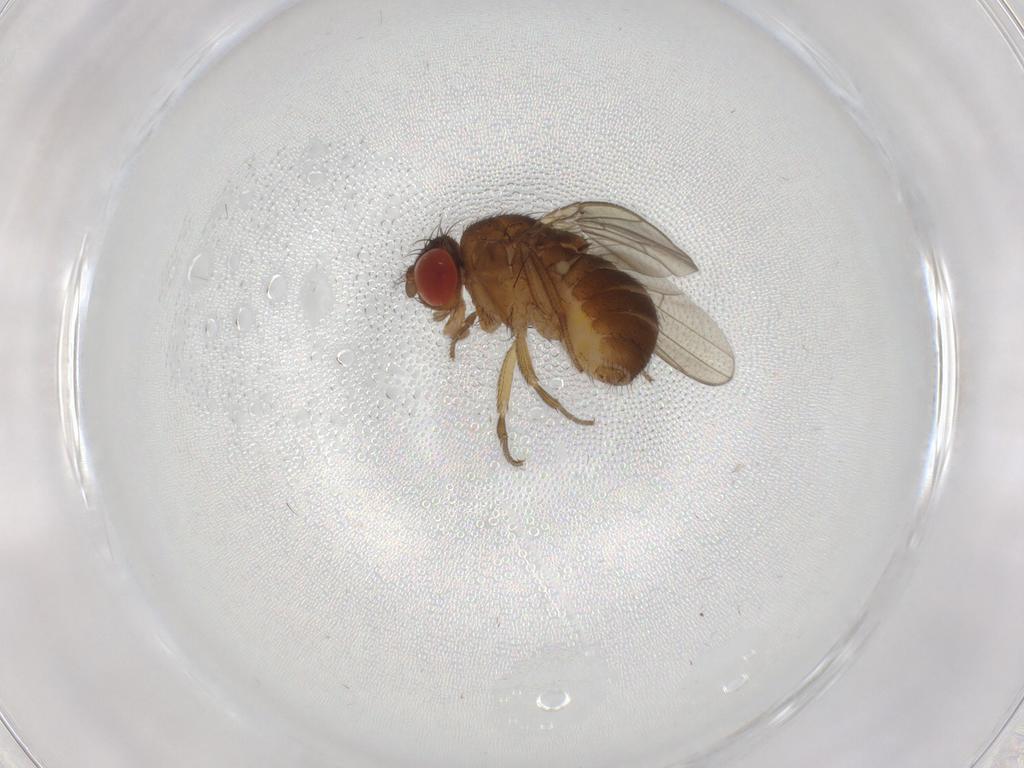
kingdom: Animalia
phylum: Arthropoda
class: Insecta
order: Diptera
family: Drosophilidae
